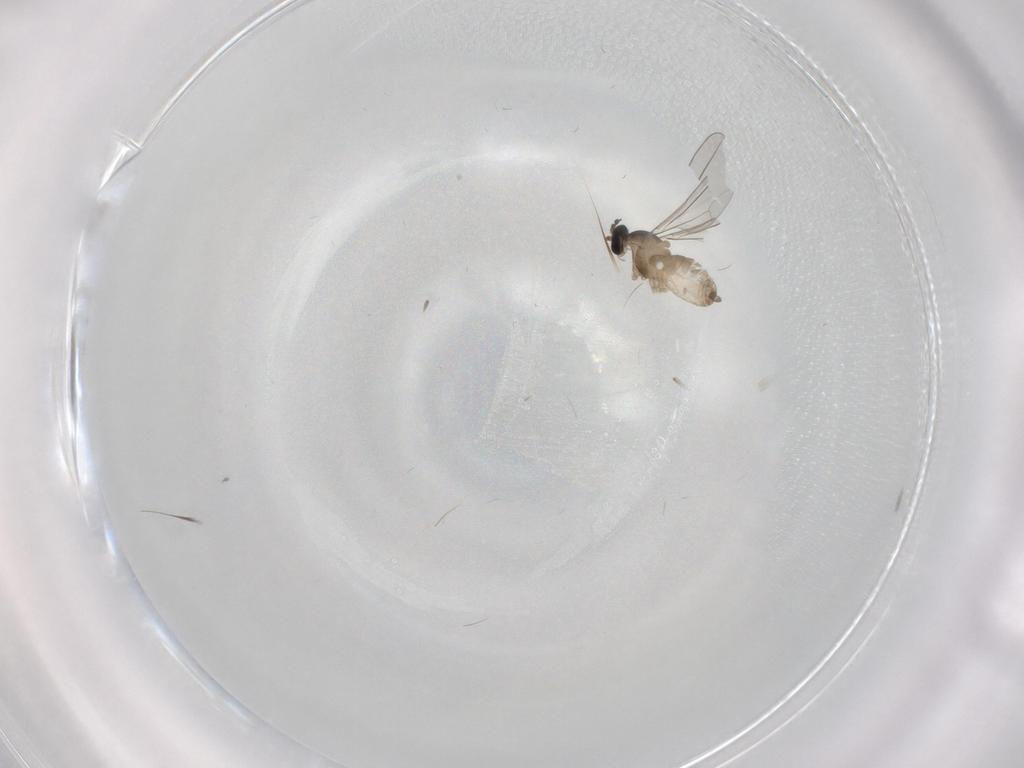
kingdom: Animalia
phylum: Arthropoda
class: Insecta
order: Diptera
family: Cecidomyiidae
